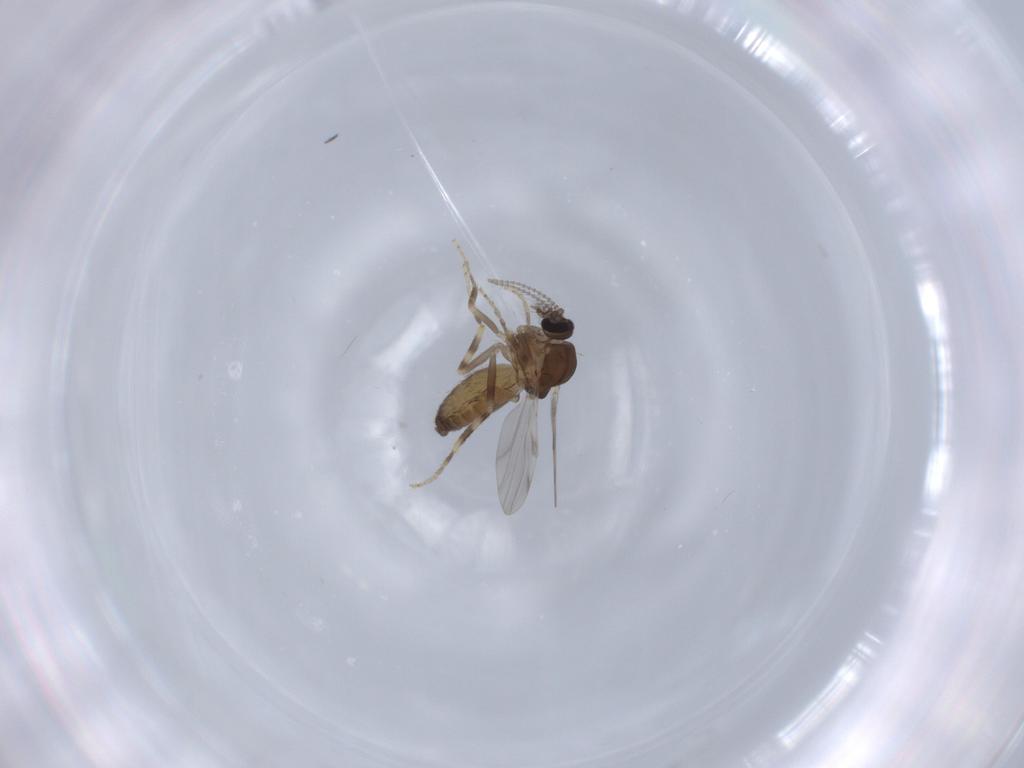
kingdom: Animalia
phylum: Arthropoda
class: Insecta
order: Diptera
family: Ceratopogonidae
